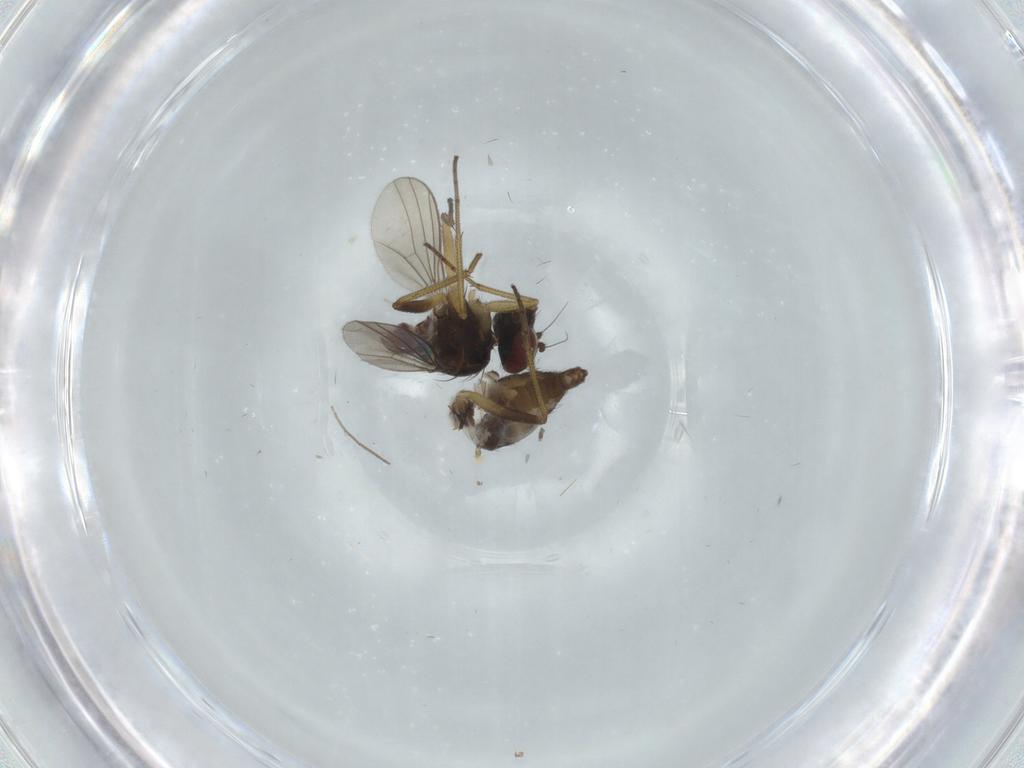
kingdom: Animalia
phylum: Arthropoda
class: Insecta
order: Diptera
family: Dolichopodidae
